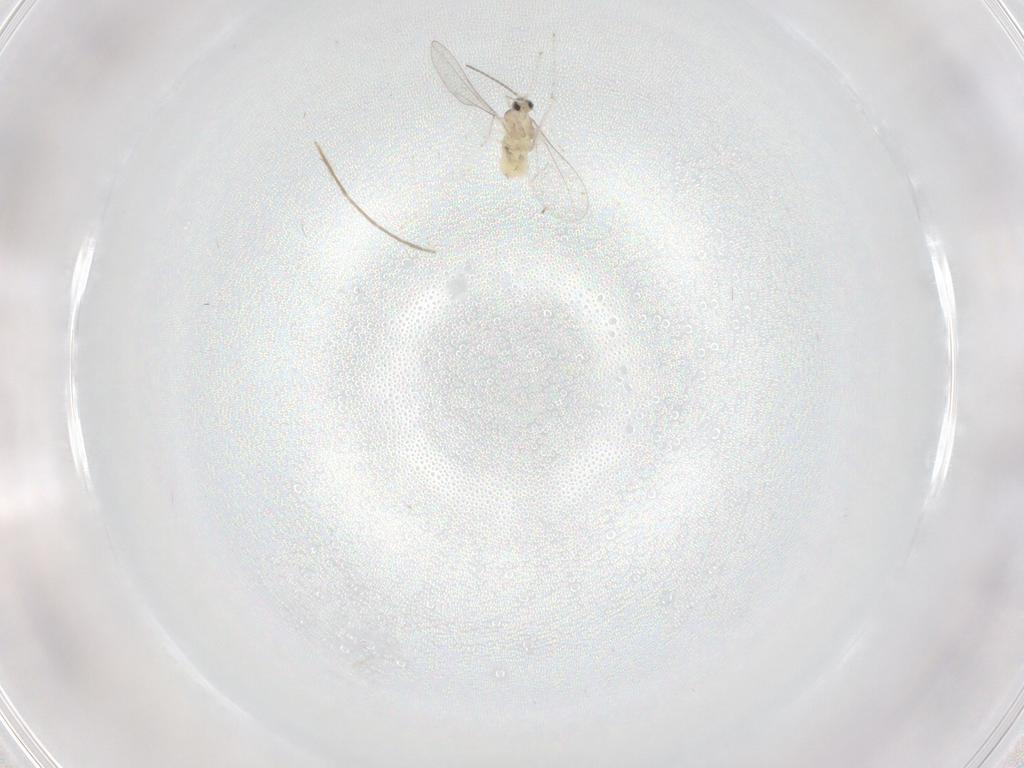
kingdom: Animalia
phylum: Arthropoda
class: Insecta
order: Diptera
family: Cecidomyiidae
